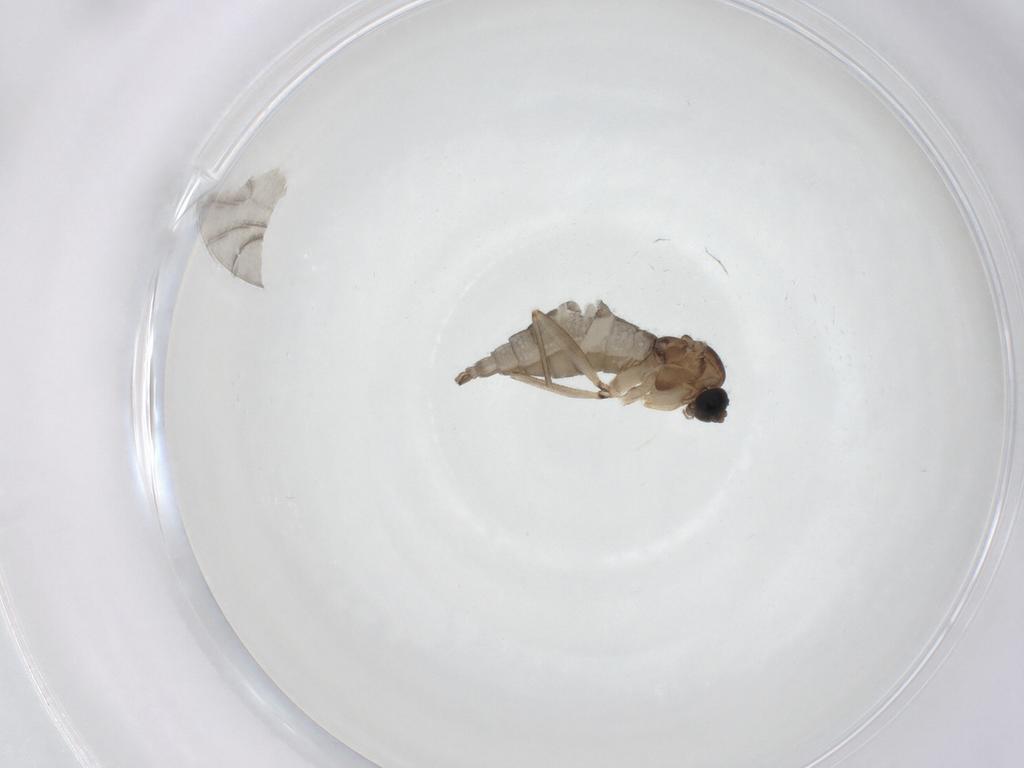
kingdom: Animalia
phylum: Arthropoda
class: Insecta
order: Diptera
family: Sciaridae
